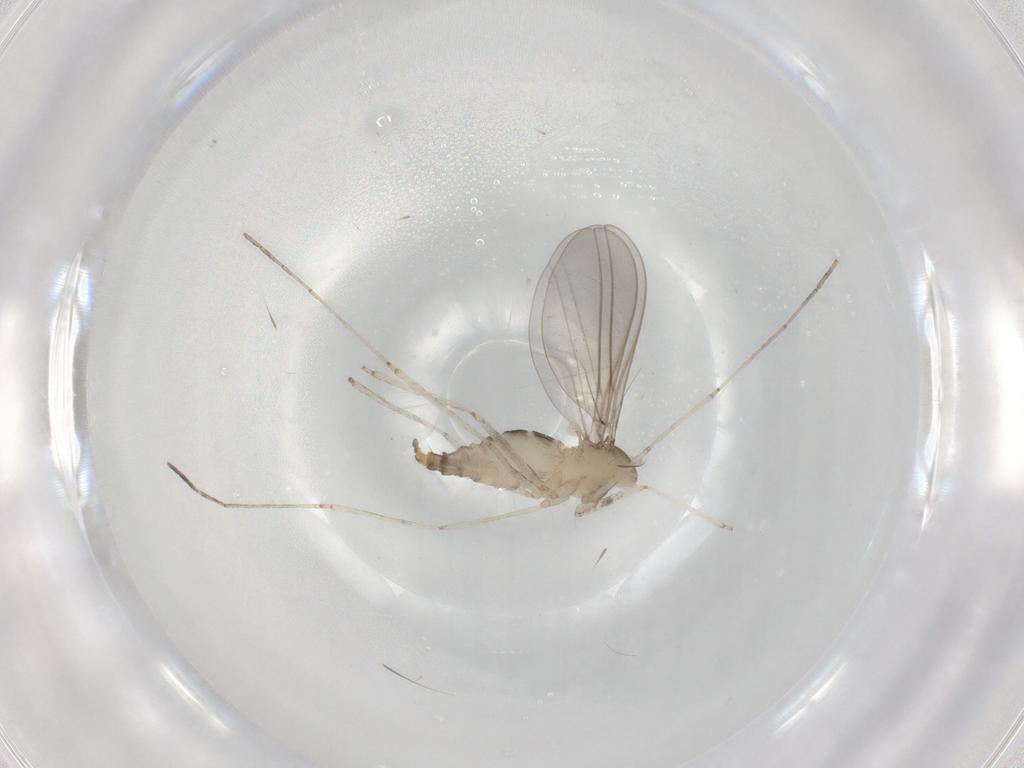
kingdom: Animalia
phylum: Arthropoda
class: Insecta
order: Diptera
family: Cecidomyiidae
